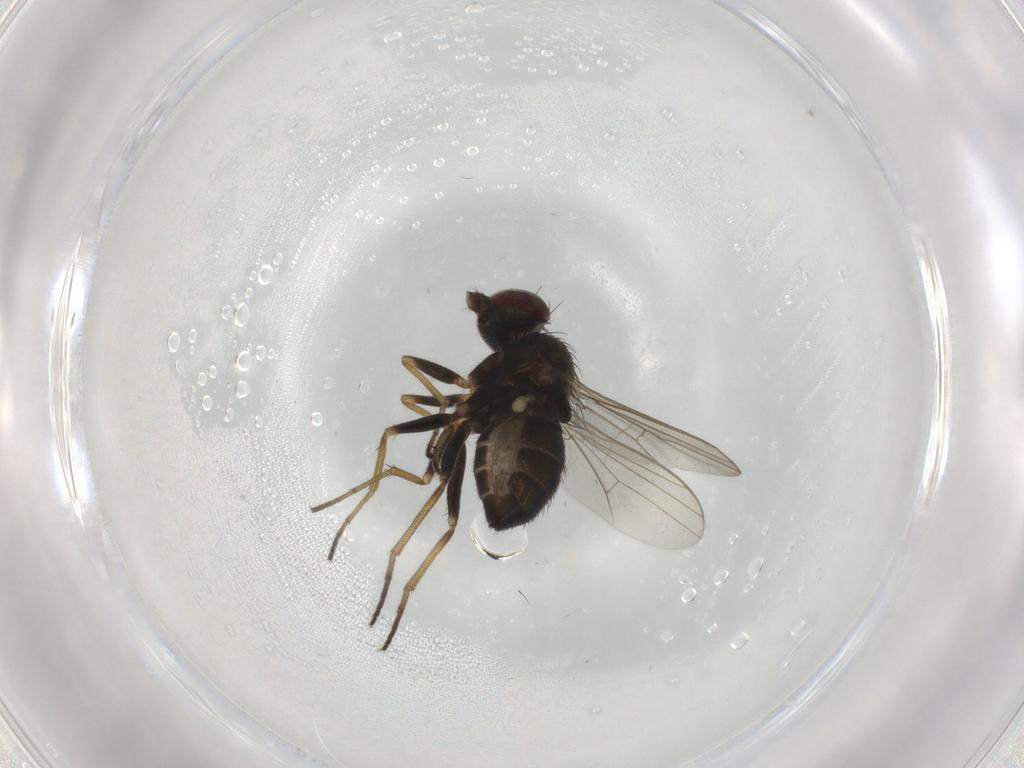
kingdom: Animalia
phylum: Arthropoda
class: Insecta
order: Diptera
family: Dolichopodidae
